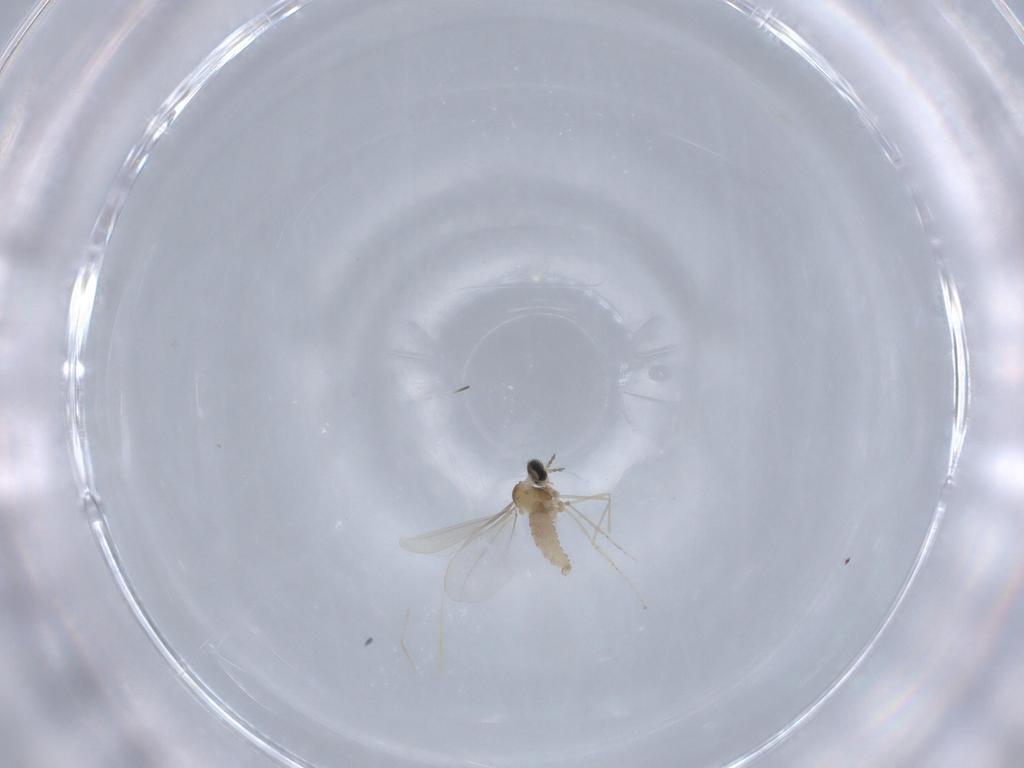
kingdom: Animalia
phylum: Arthropoda
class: Insecta
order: Diptera
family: Cecidomyiidae
